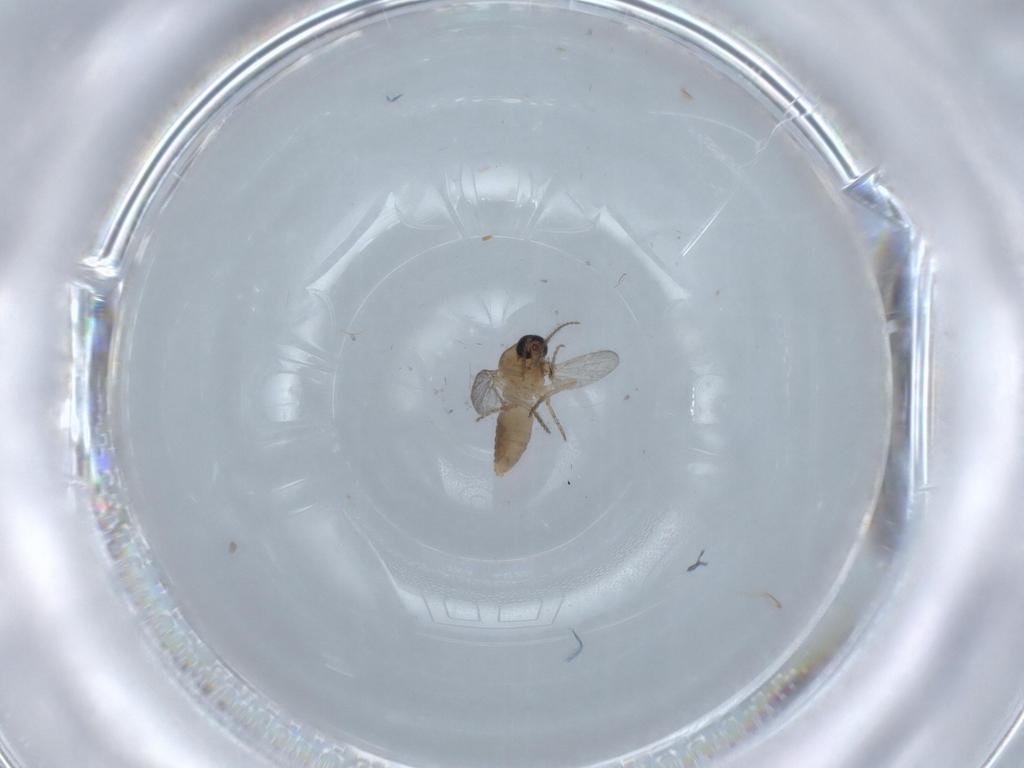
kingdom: Animalia
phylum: Arthropoda
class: Insecta
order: Diptera
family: Ceratopogonidae
